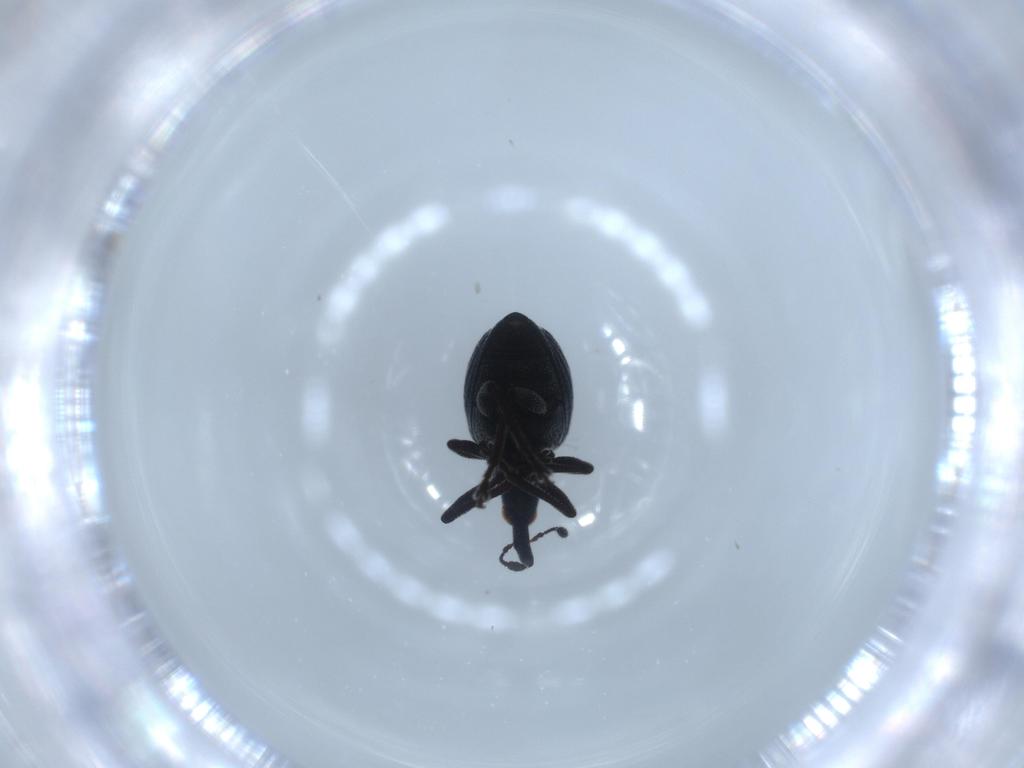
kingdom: Animalia
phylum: Arthropoda
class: Insecta
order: Coleoptera
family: Brentidae
